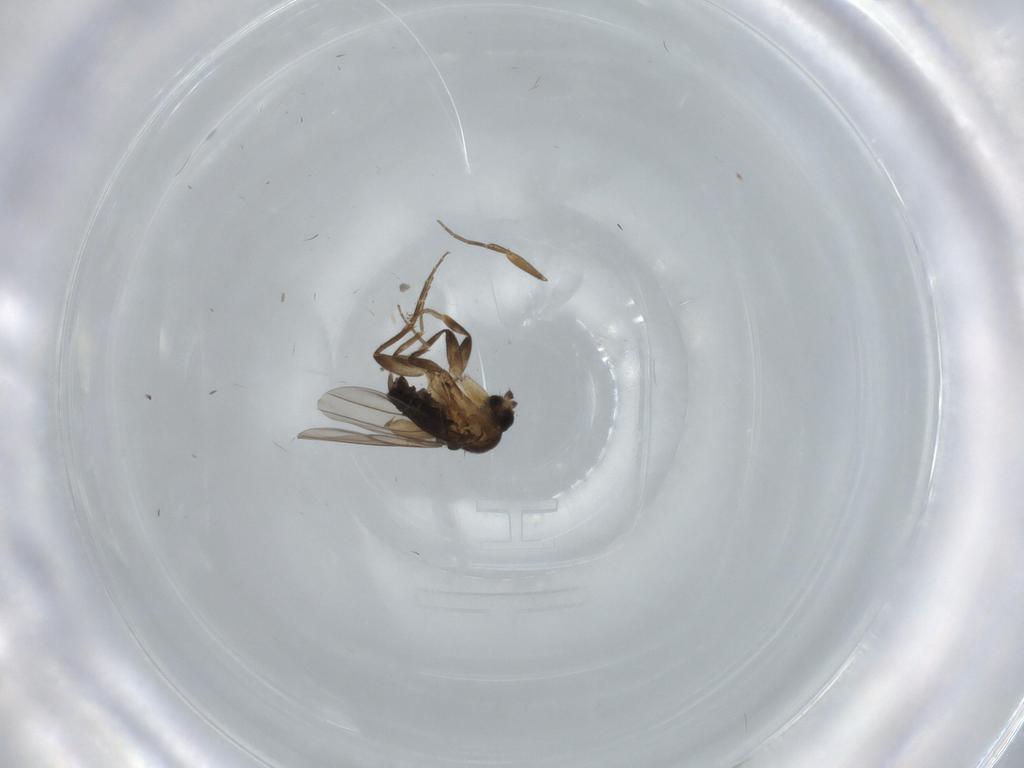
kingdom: Animalia
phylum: Arthropoda
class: Insecta
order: Diptera
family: Phoridae
